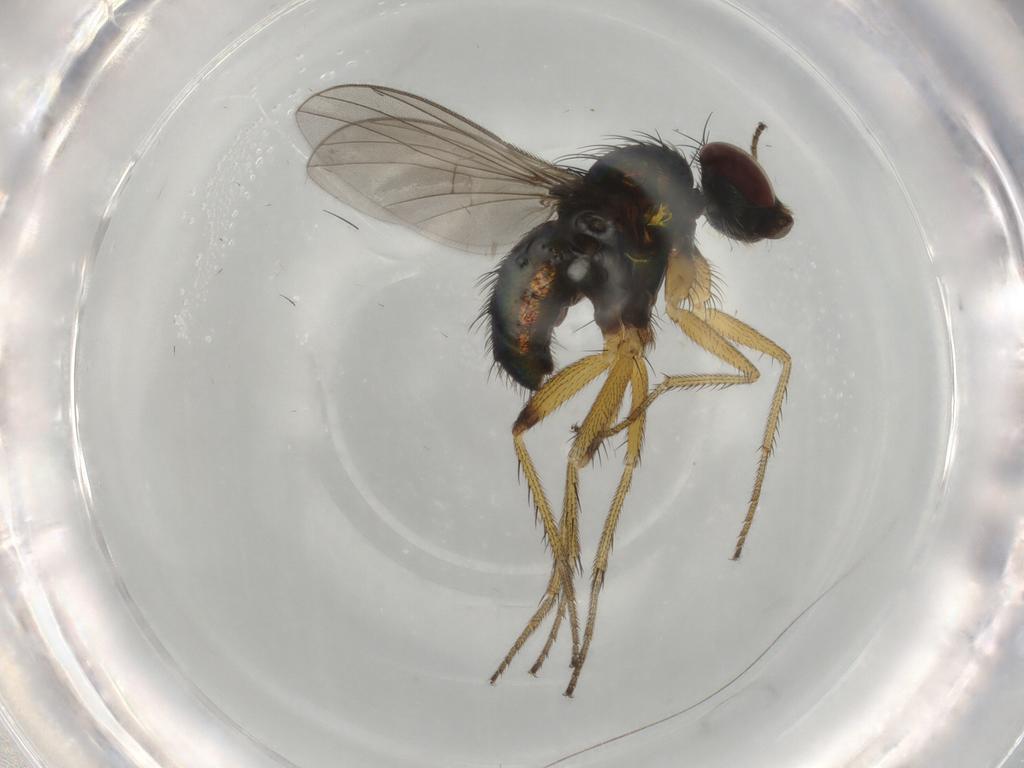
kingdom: Animalia
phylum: Arthropoda
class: Insecta
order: Diptera
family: Dolichopodidae
